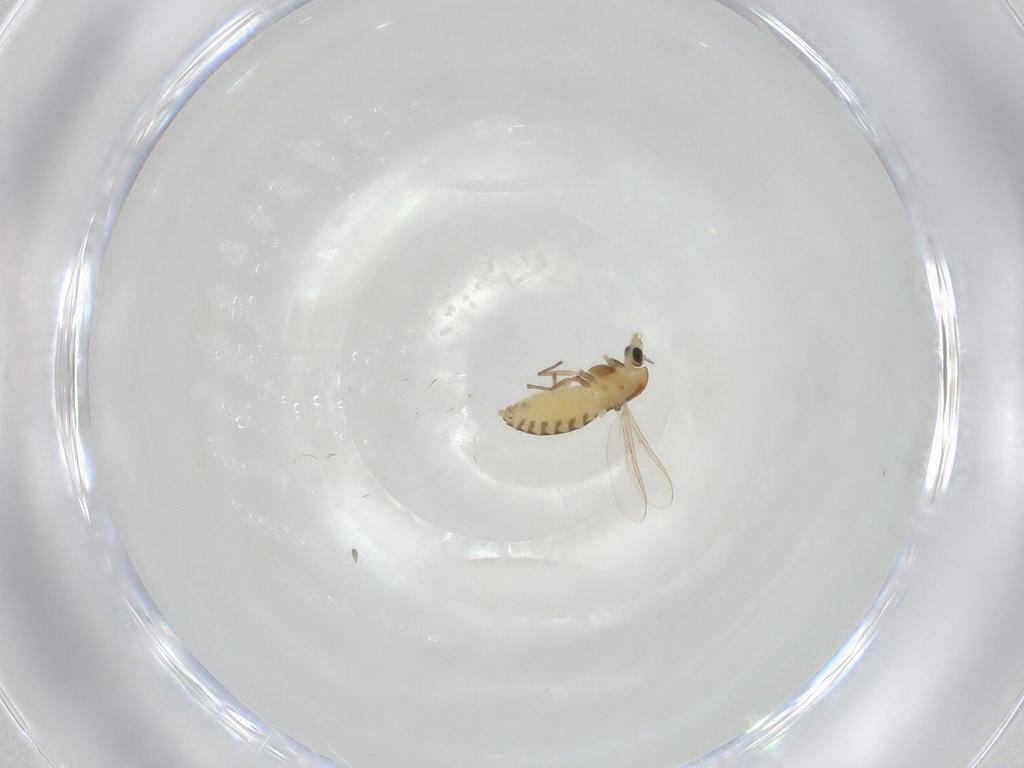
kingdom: Animalia
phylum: Arthropoda
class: Insecta
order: Diptera
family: Chironomidae
